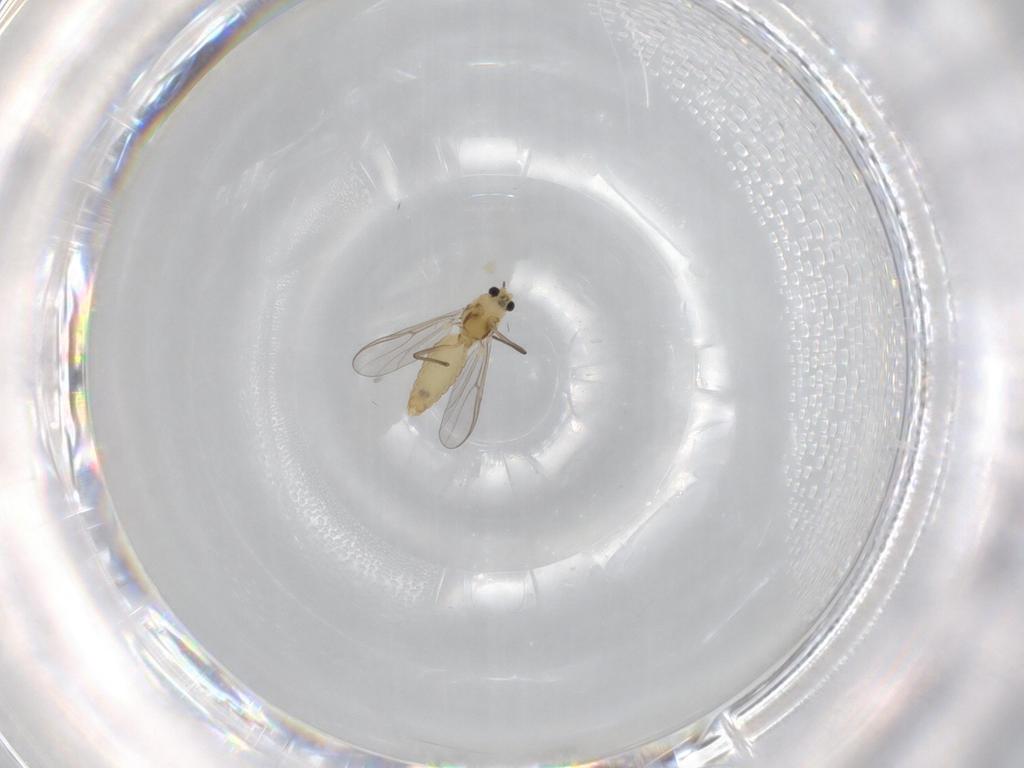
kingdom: Animalia
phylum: Arthropoda
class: Insecta
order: Diptera
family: Chironomidae
